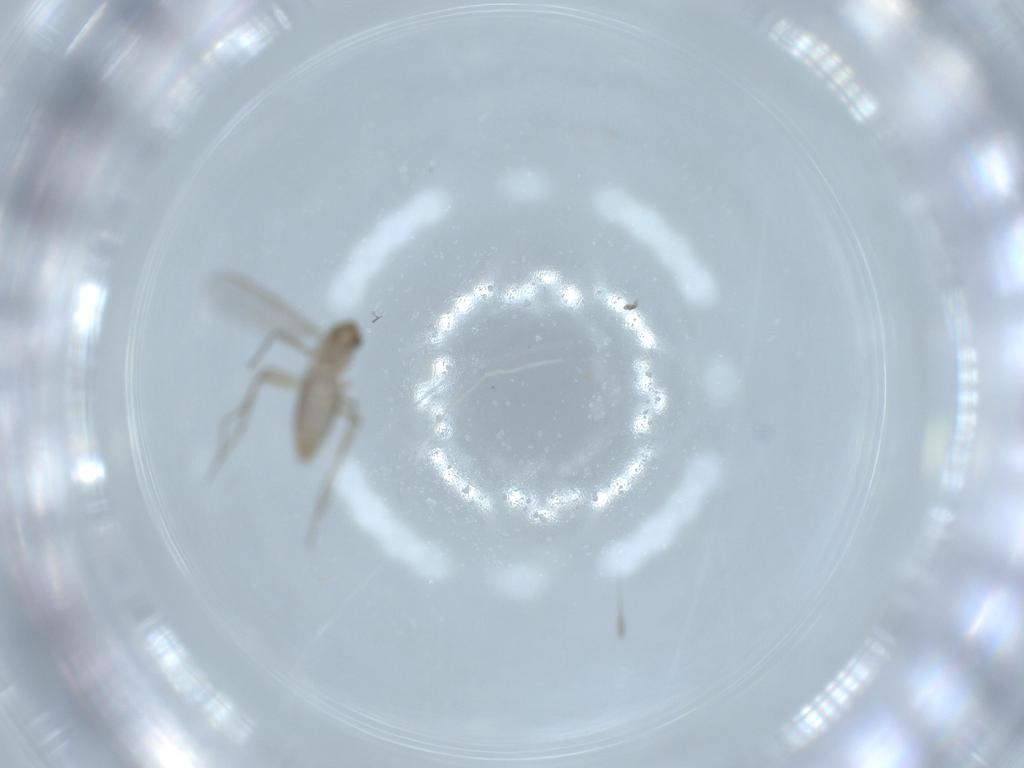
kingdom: Animalia
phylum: Arthropoda
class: Insecta
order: Diptera
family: Chironomidae
